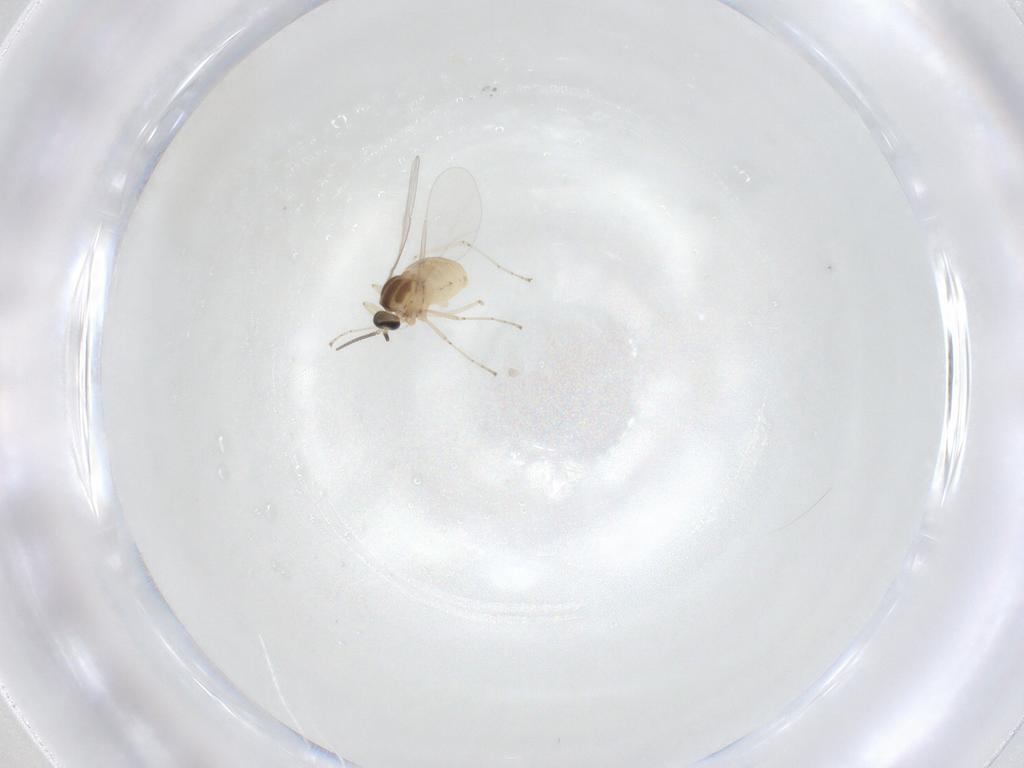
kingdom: Animalia
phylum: Arthropoda
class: Insecta
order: Diptera
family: Cecidomyiidae
